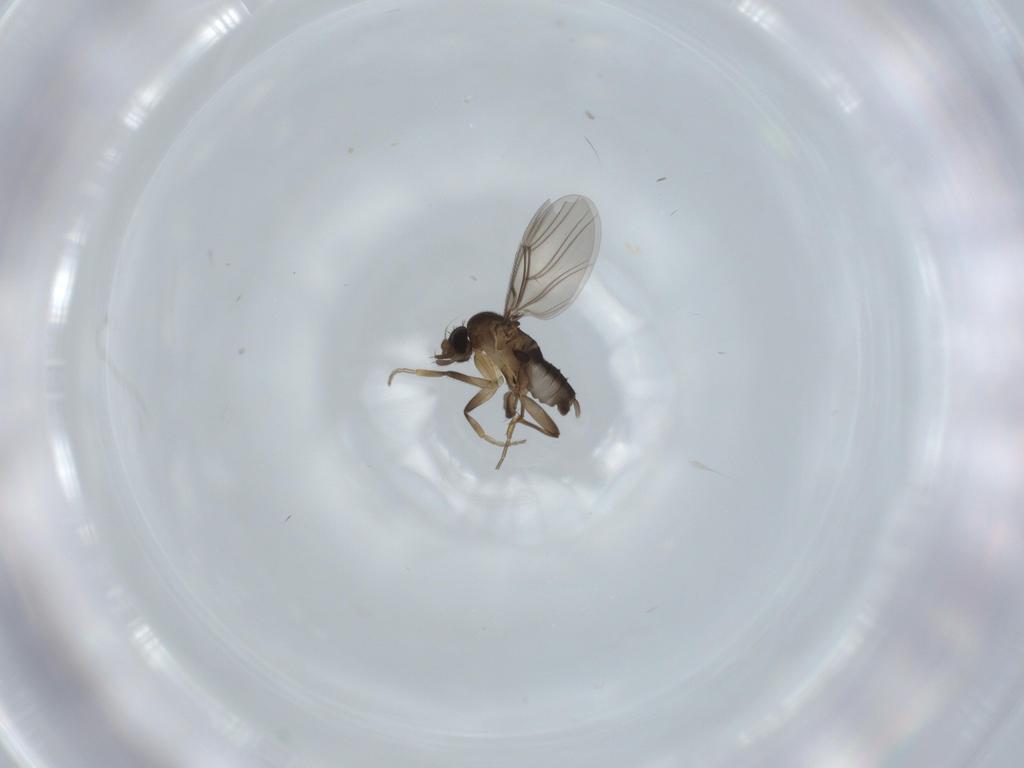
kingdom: Animalia
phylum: Arthropoda
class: Insecta
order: Diptera
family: Phoridae
